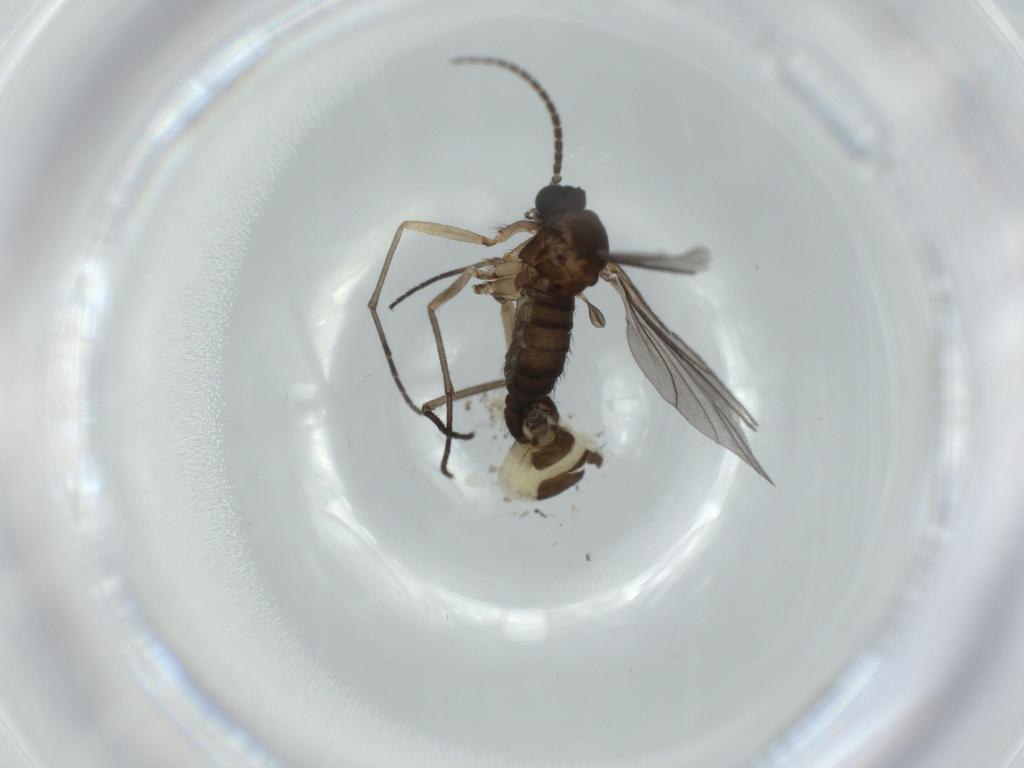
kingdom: Animalia
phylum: Arthropoda
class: Insecta
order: Diptera
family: Sciaridae
